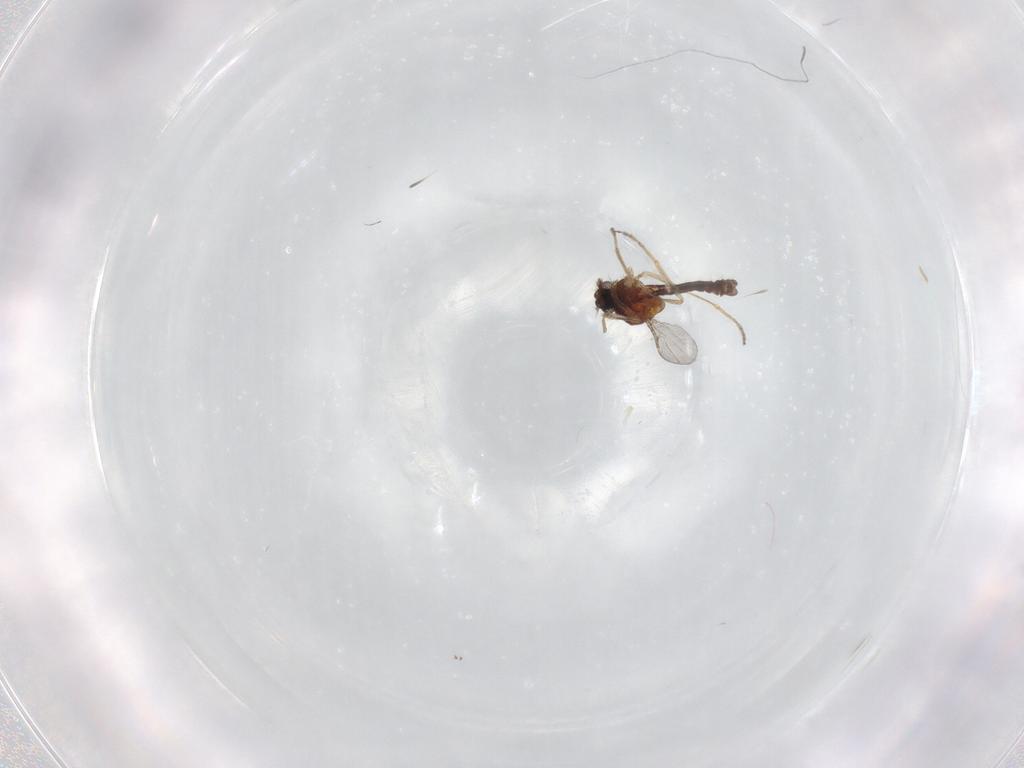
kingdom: Animalia
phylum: Arthropoda
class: Insecta
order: Diptera
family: Ceratopogonidae
